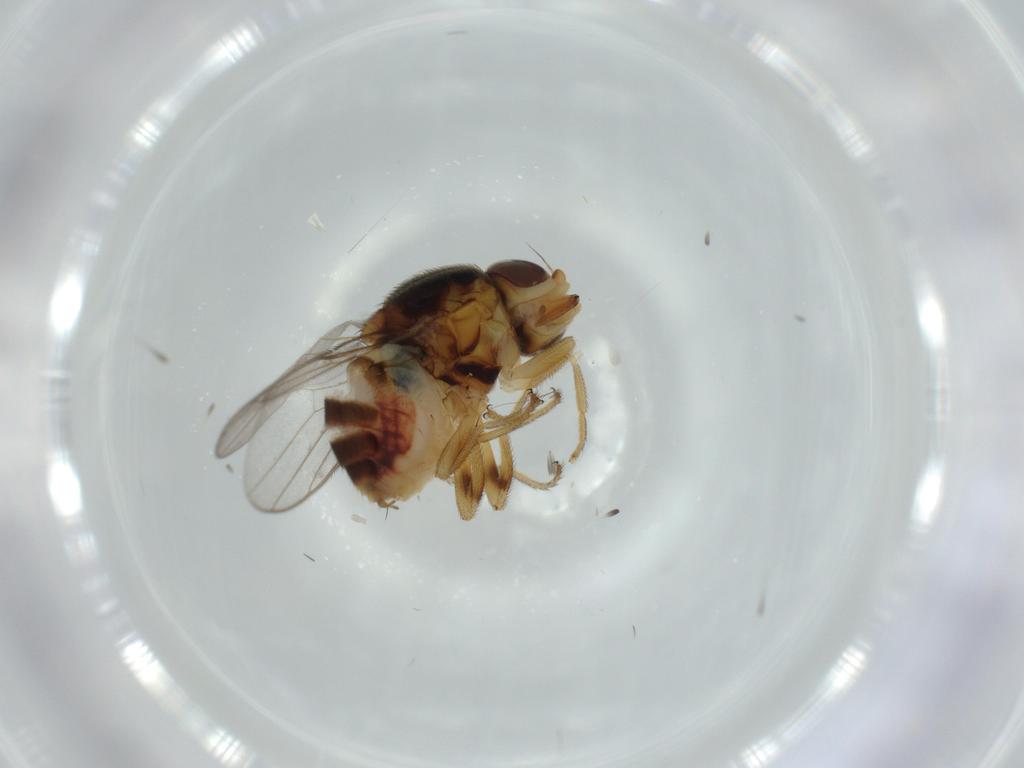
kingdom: Animalia
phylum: Arthropoda
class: Insecta
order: Diptera
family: Chloropidae
